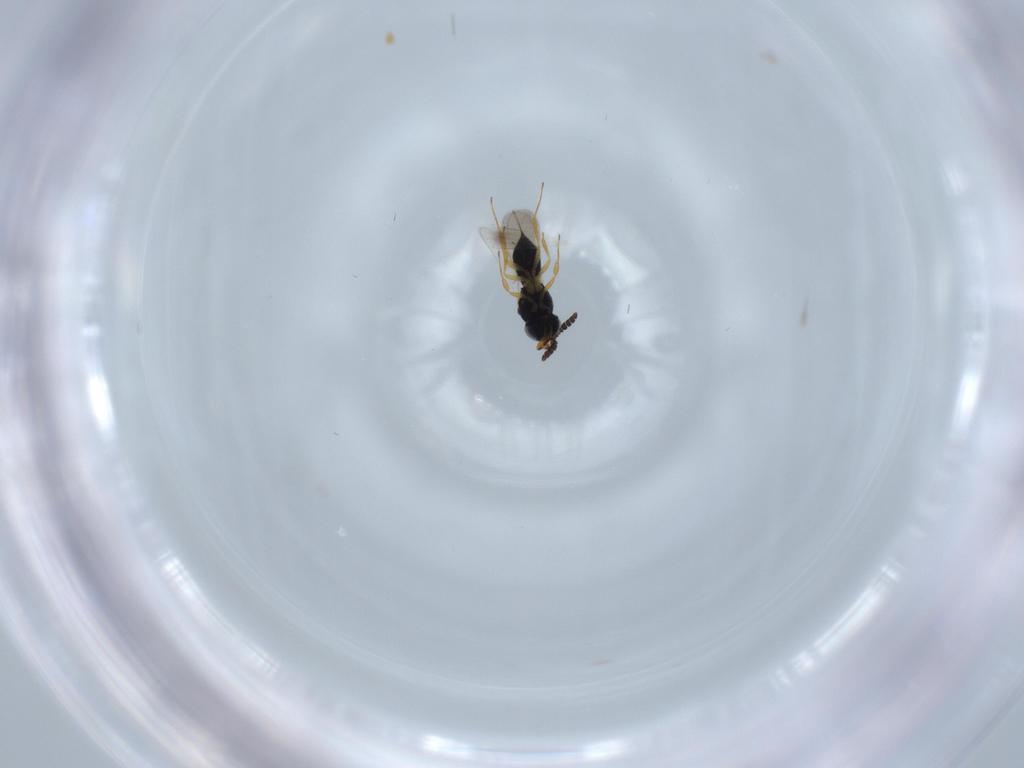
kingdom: Animalia
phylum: Arthropoda
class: Insecta
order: Hymenoptera
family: Scelionidae
